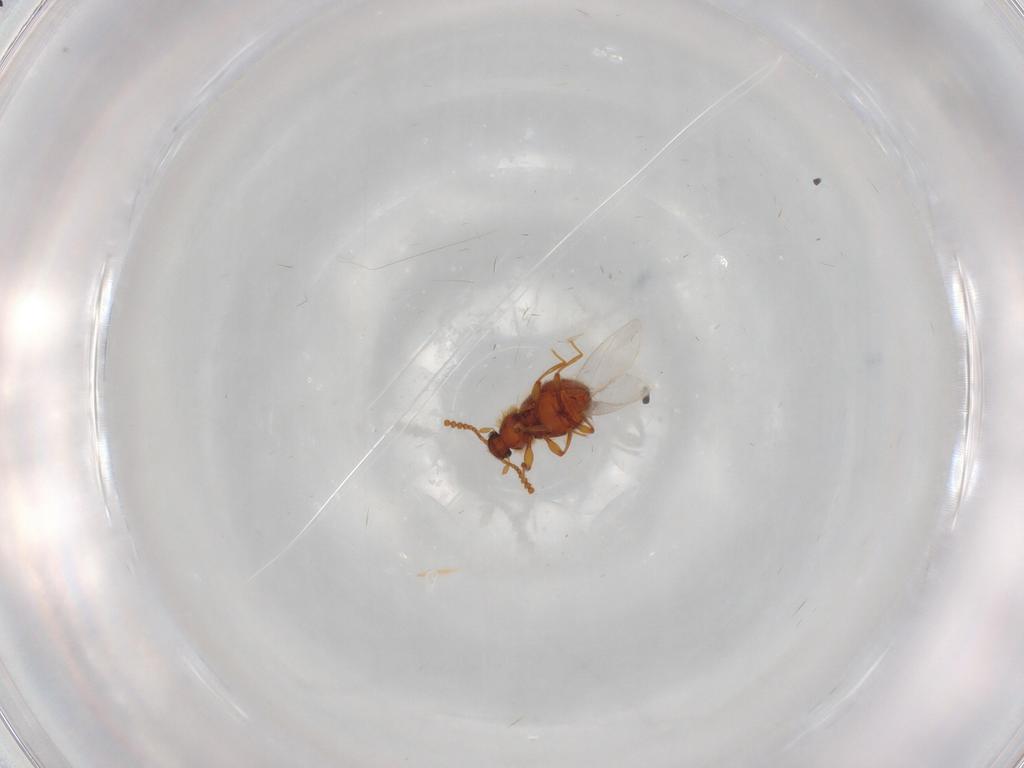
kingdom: Animalia
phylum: Arthropoda
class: Insecta
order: Coleoptera
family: Staphylinidae
